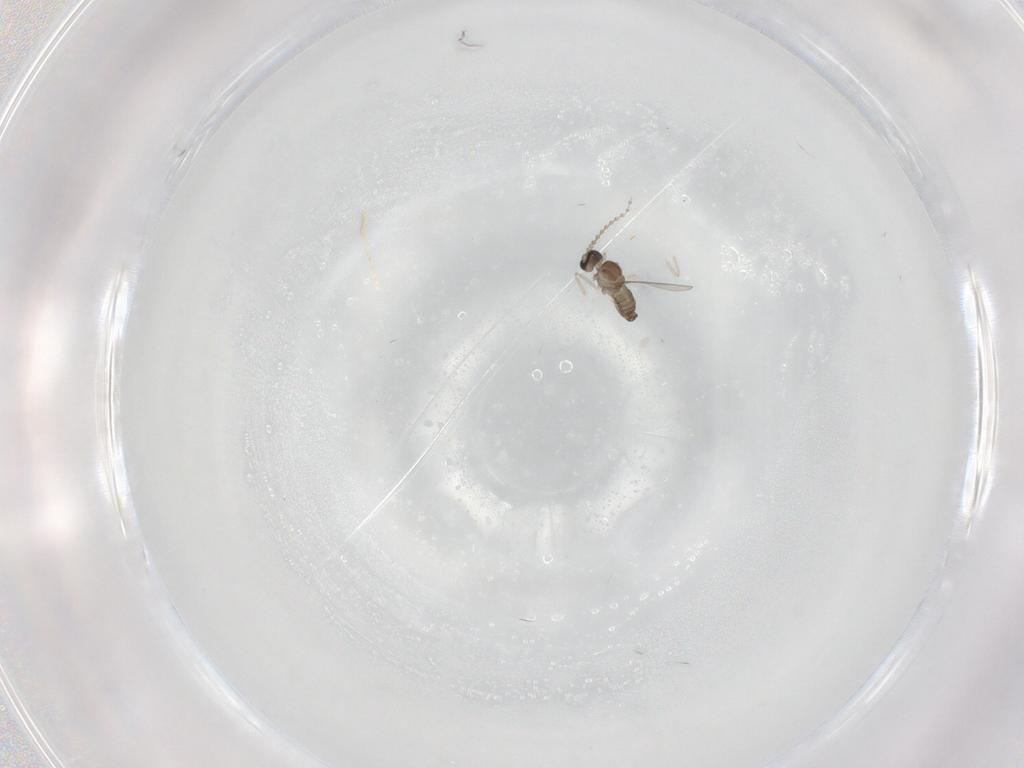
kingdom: Animalia
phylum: Arthropoda
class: Insecta
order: Diptera
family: Cecidomyiidae
